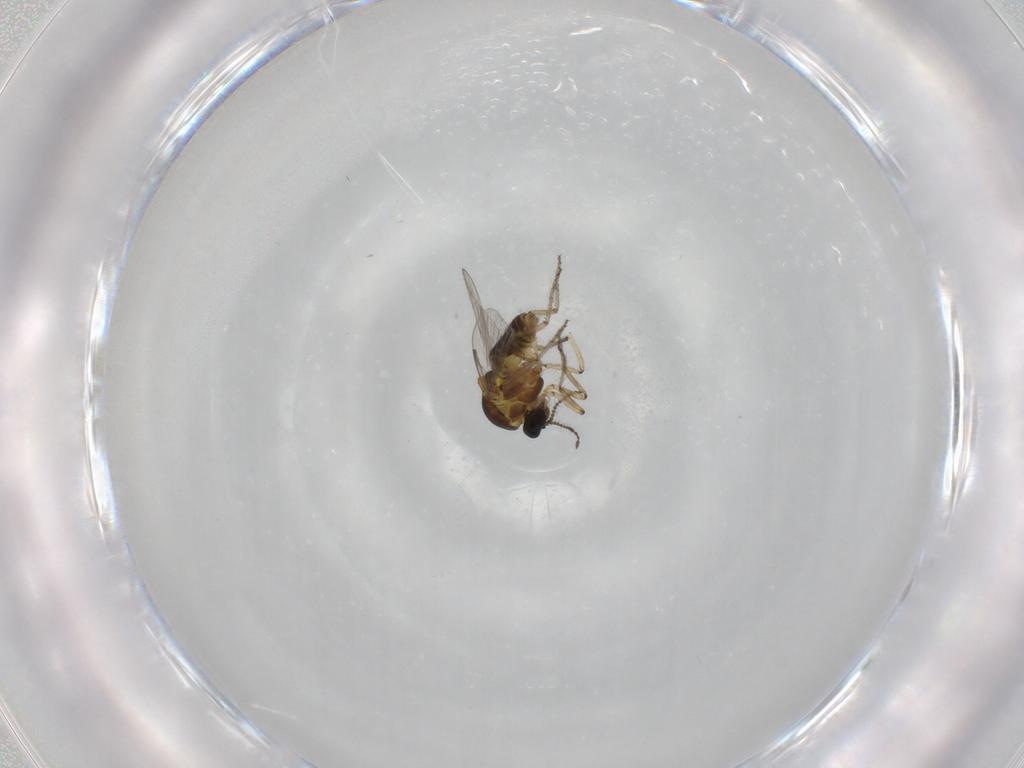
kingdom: Animalia
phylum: Arthropoda
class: Insecta
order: Diptera
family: Ceratopogonidae
